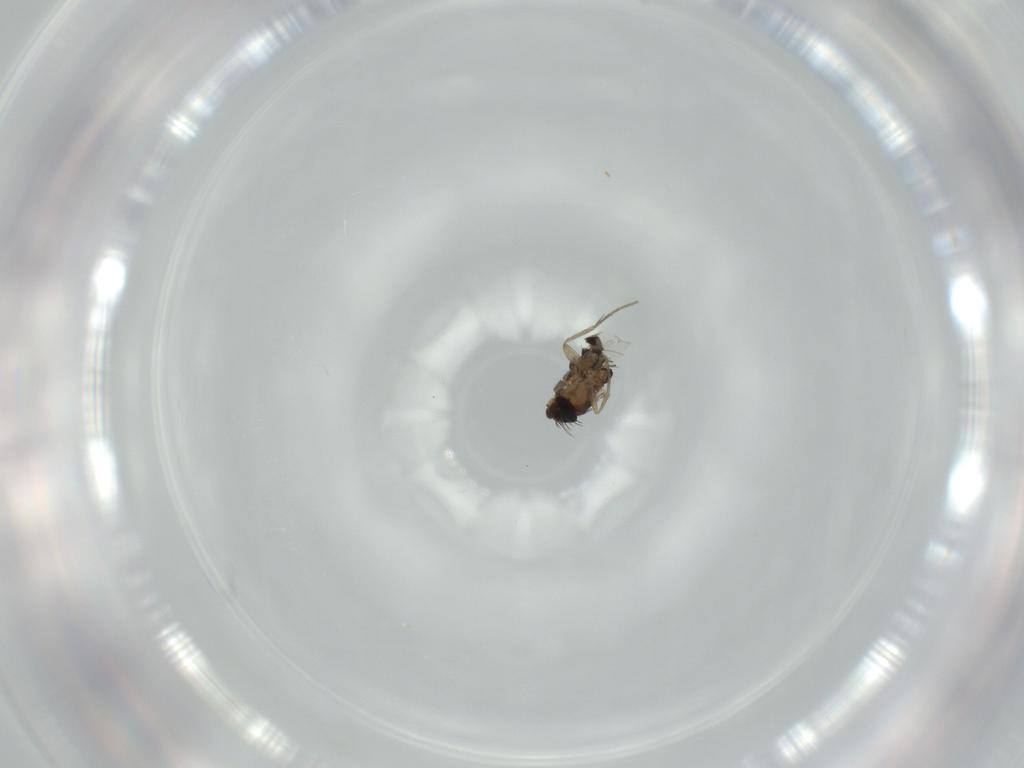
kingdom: Animalia
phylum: Arthropoda
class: Insecta
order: Diptera
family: Phoridae
